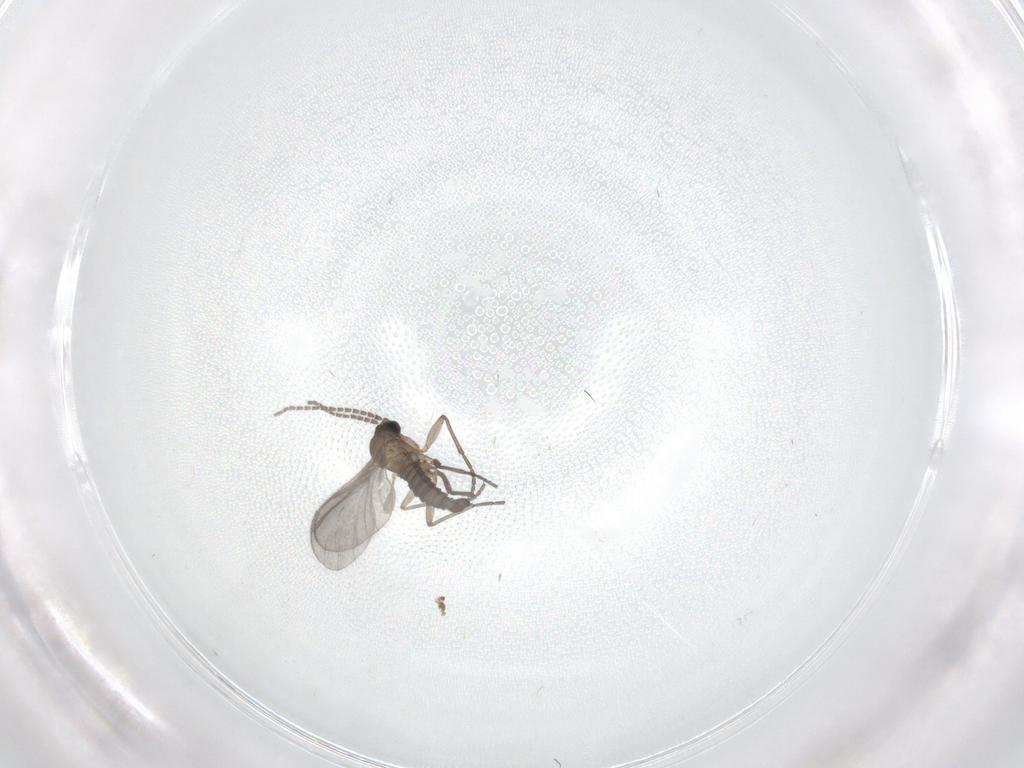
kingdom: Animalia
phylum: Arthropoda
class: Insecta
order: Diptera
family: Sciaridae
